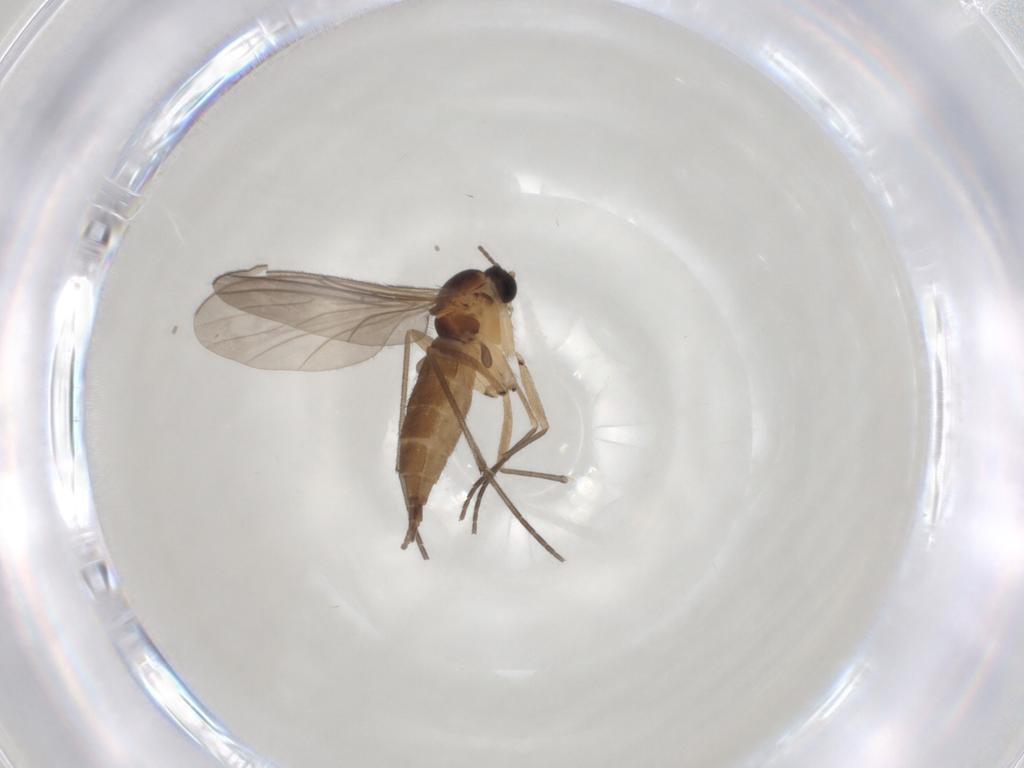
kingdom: Animalia
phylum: Arthropoda
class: Insecta
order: Diptera
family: Sciaridae
